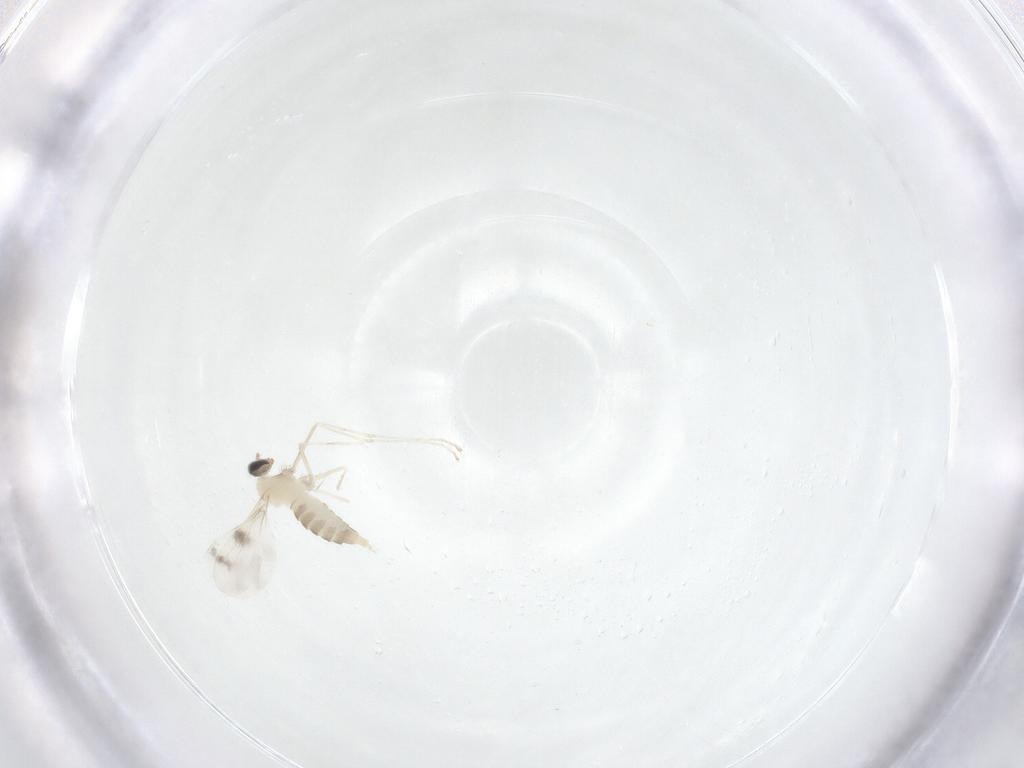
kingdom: Animalia
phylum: Arthropoda
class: Insecta
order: Diptera
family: Cecidomyiidae
